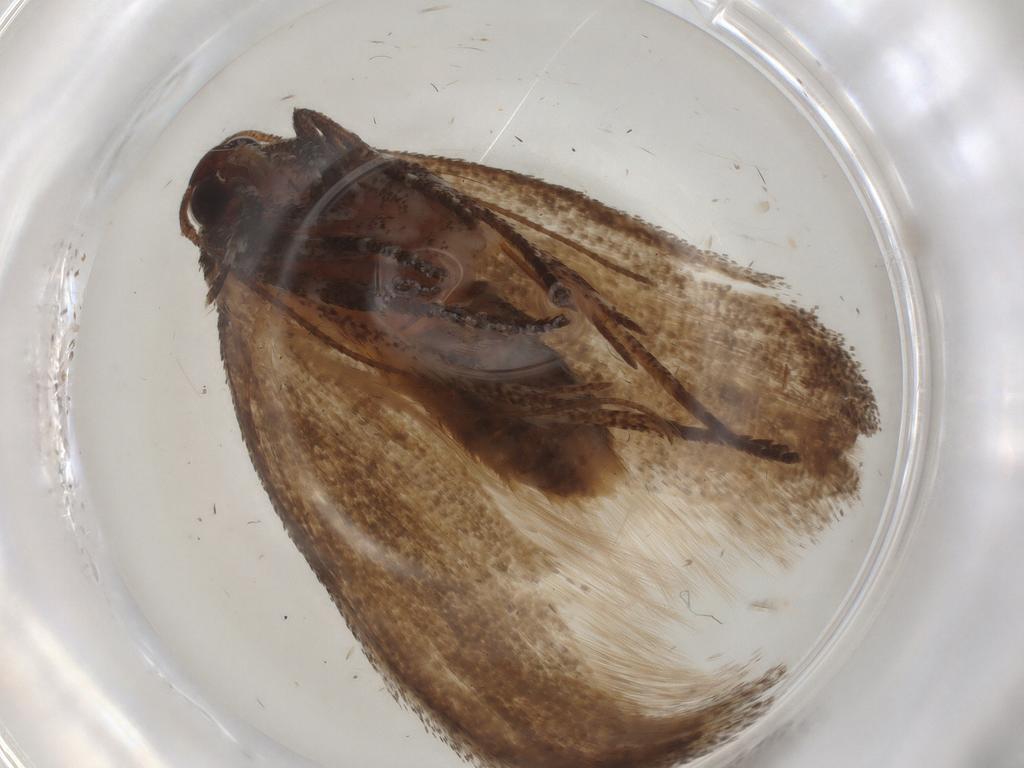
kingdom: Animalia
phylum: Arthropoda
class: Insecta
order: Lepidoptera
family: Cosmopterigidae
